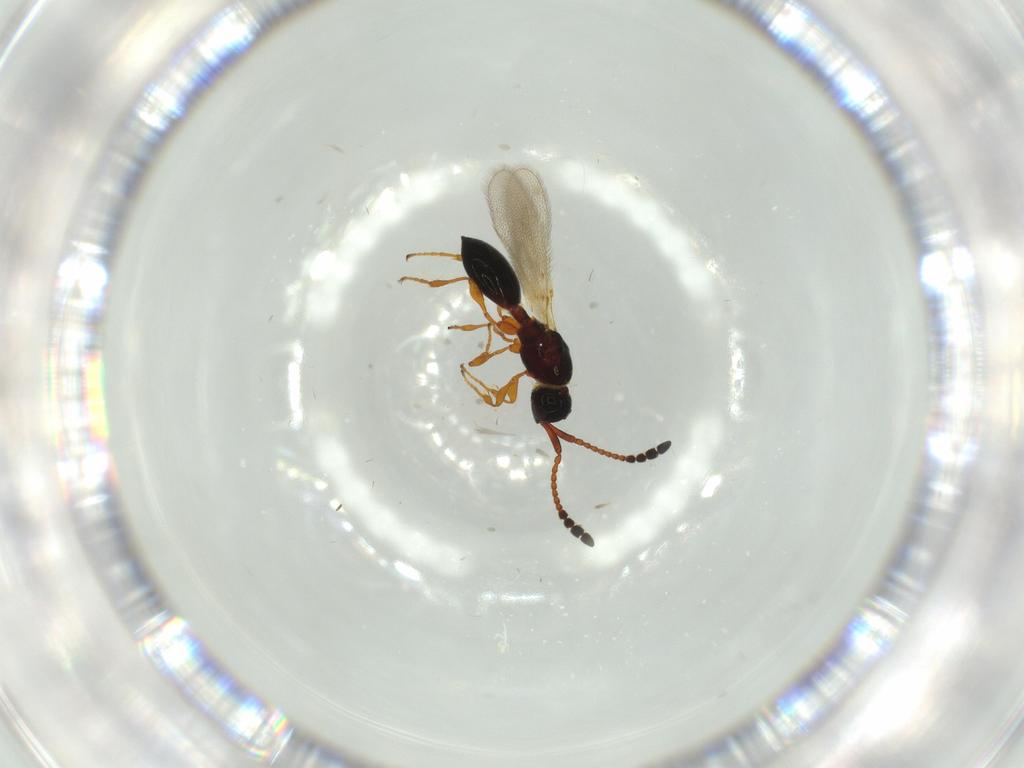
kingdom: Animalia
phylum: Arthropoda
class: Insecta
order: Hymenoptera
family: Diapriidae
